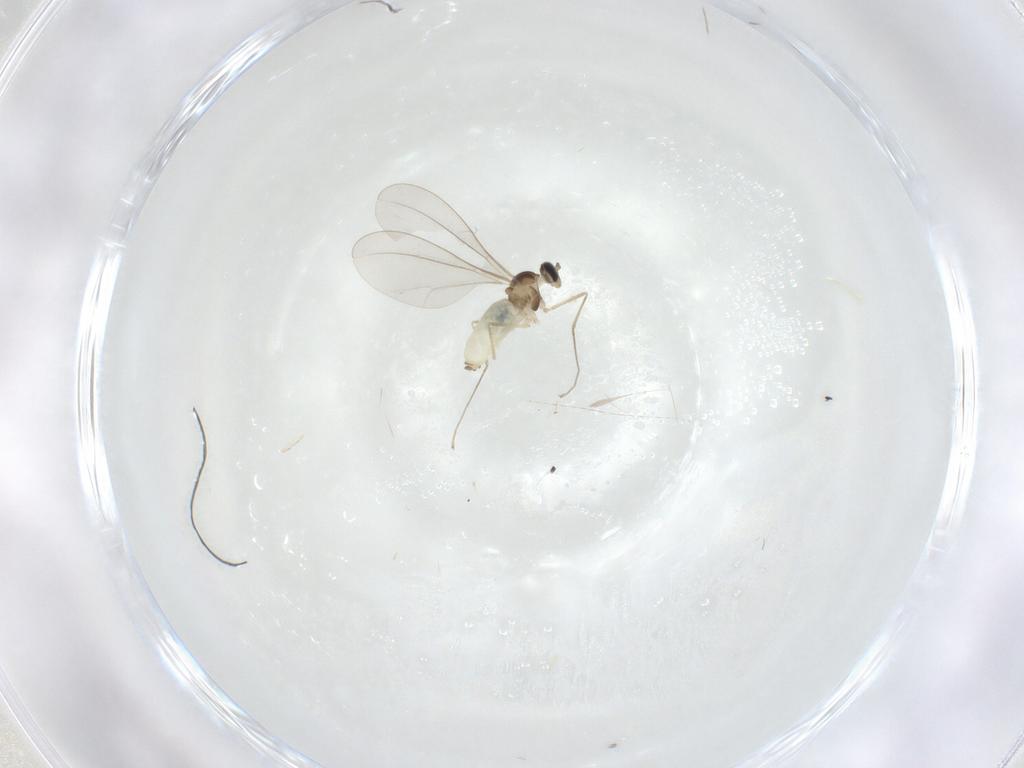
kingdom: Animalia
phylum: Arthropoda
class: Insecta
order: Diptera
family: Cecidomyiidae
